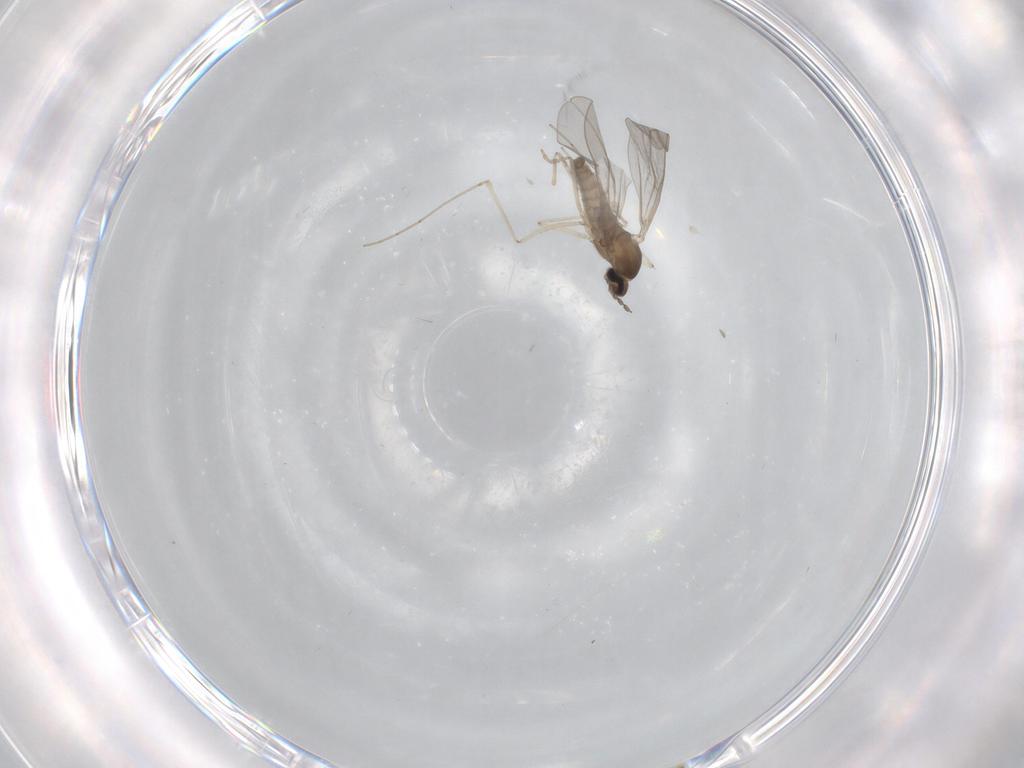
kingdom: Animalia
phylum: Arthropoda
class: Insecta
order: Diptera
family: Cecidomyiidae
